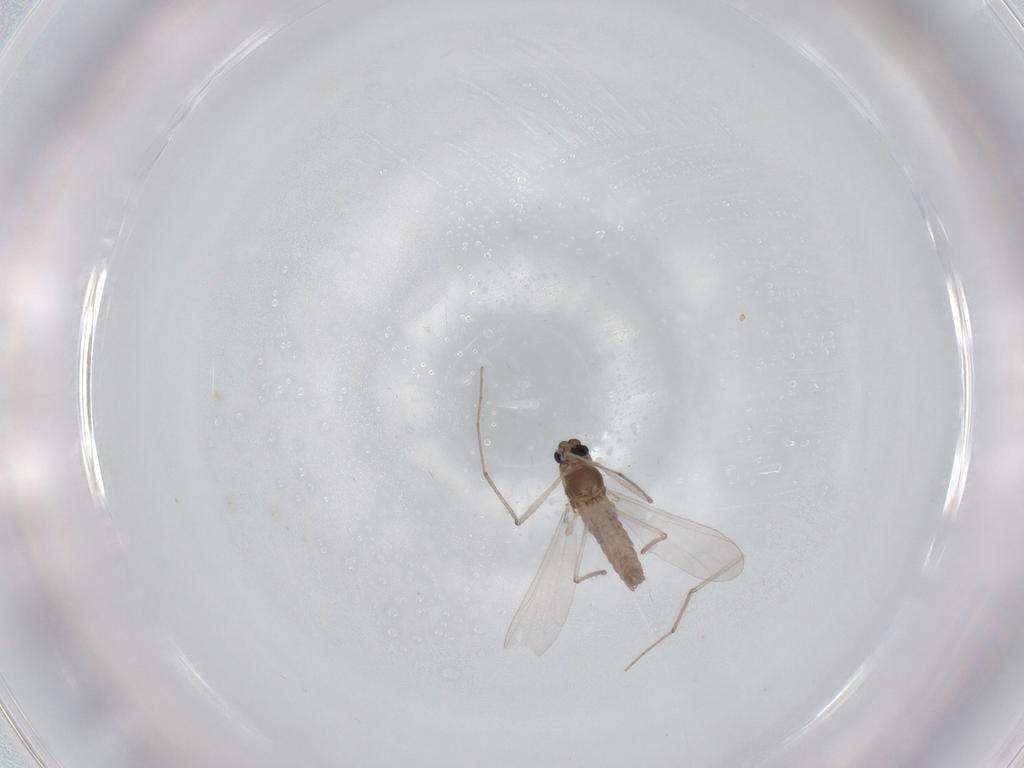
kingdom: Animalia
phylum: Arthropoda
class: Insecta
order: Diptera
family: Chironomidae
